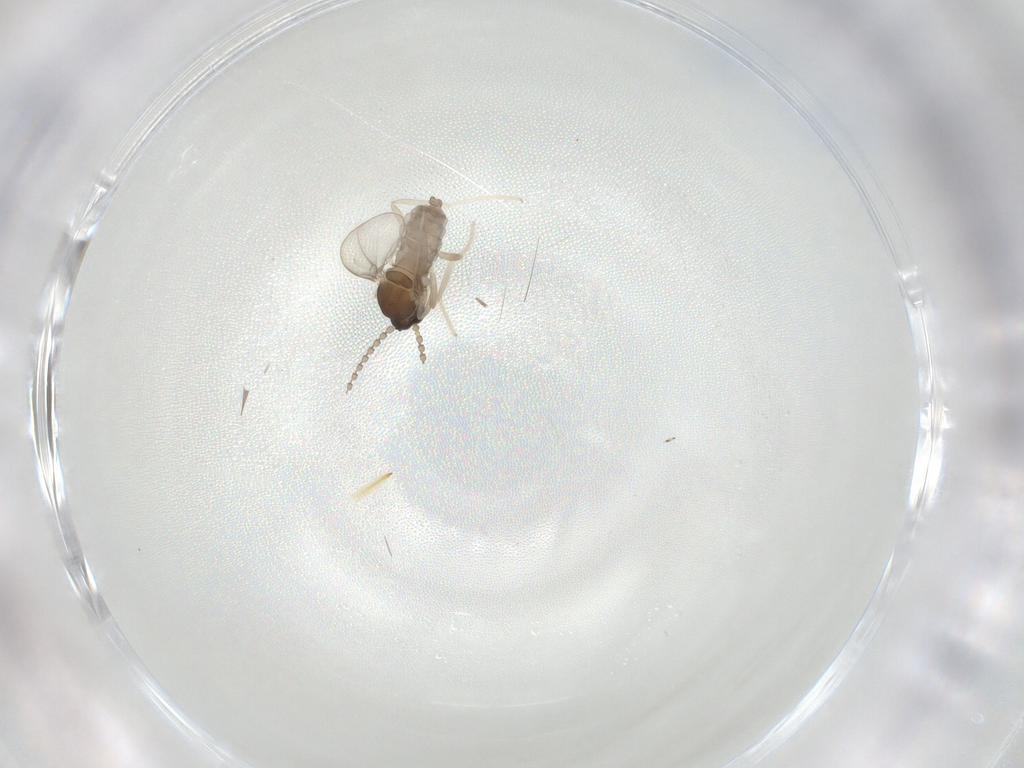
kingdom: Animalia
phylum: Arthropoda
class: Insecta
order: Diptera
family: Cecidomyiidae
